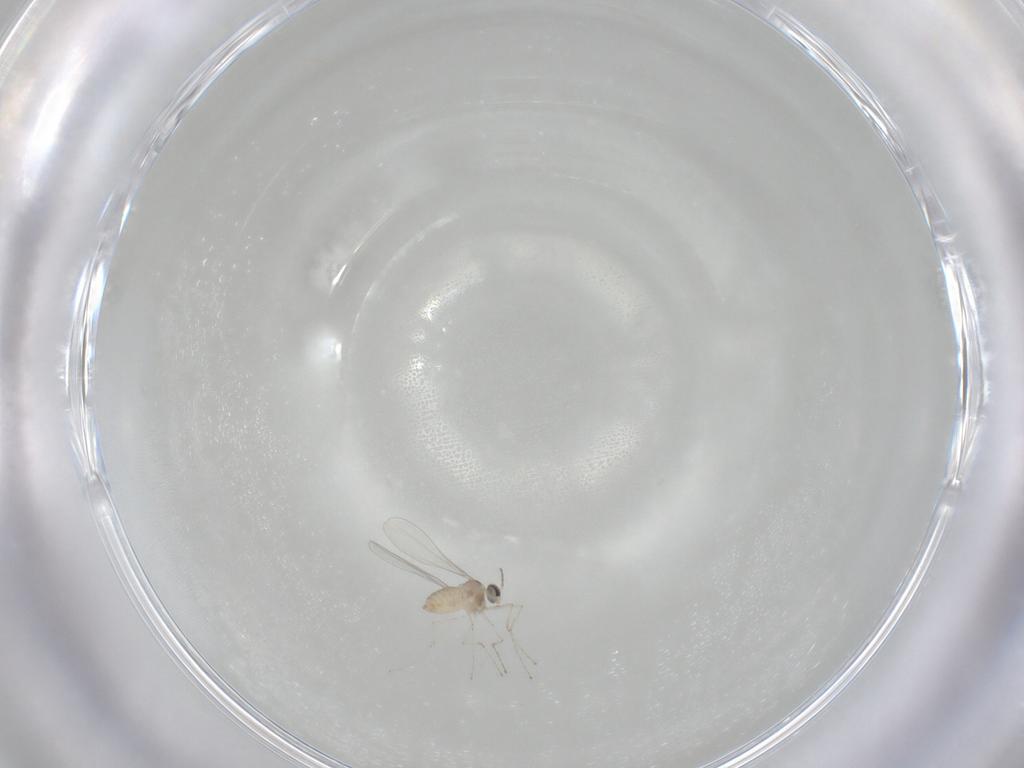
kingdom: Animalia
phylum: Arthropoda
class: Insecta
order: Diptera
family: Cecidomyiidae
